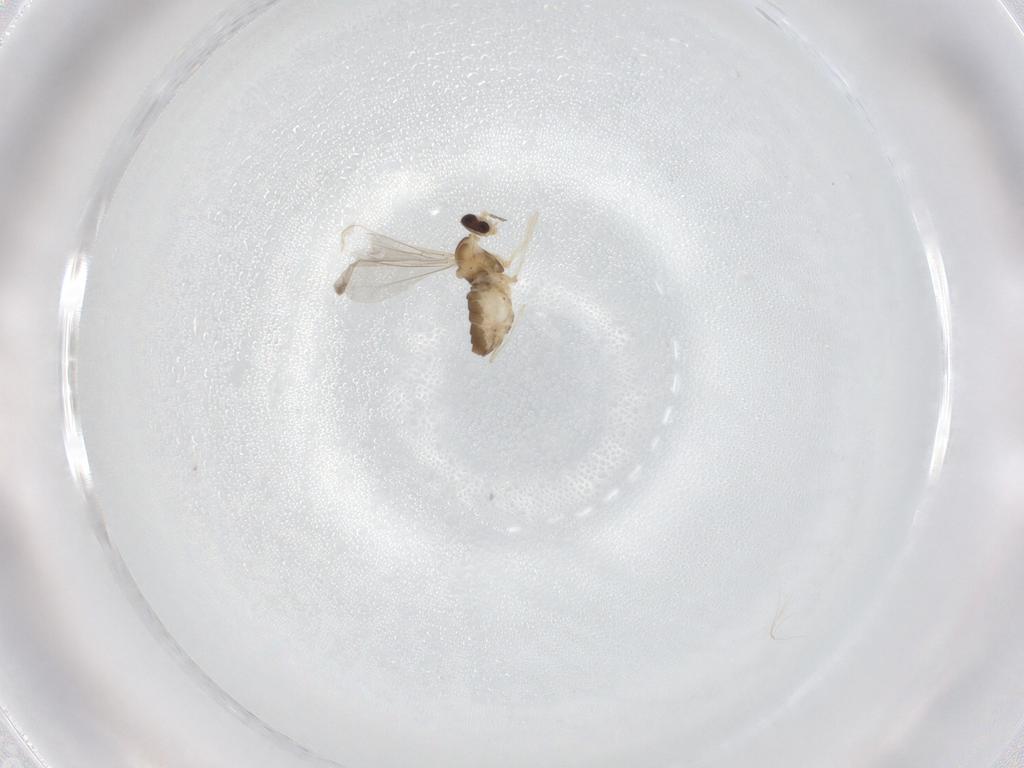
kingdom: Animalia
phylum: Arthropoda
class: Insecta
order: Diptera
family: Cecidomyiidae
